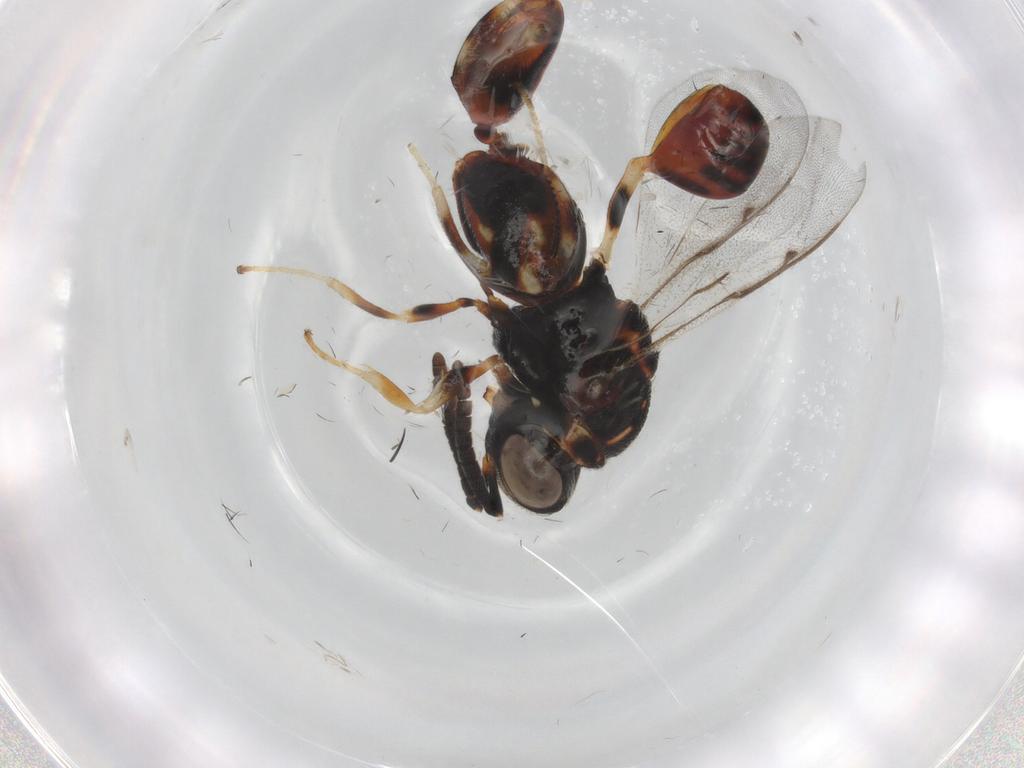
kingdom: Animalia
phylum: Arthropoda
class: Insecta
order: Hymenoptera
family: Chalcididae
